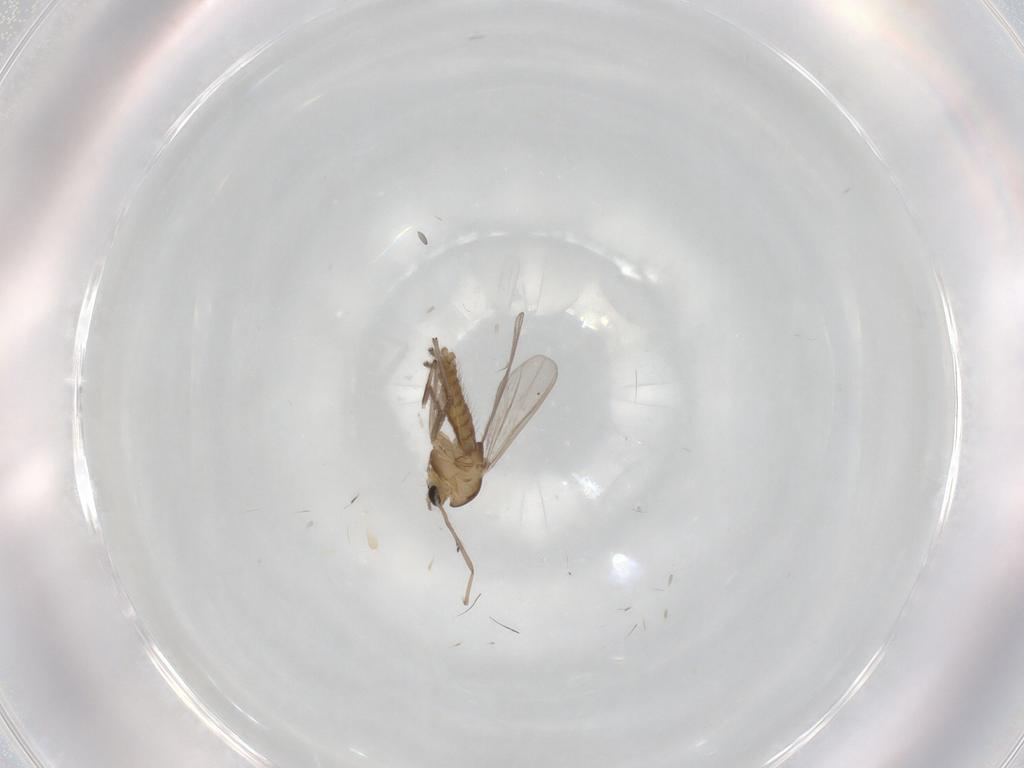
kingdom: Animalia
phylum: Arthropoda
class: Insecta
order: Diptera
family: Chironomidae
